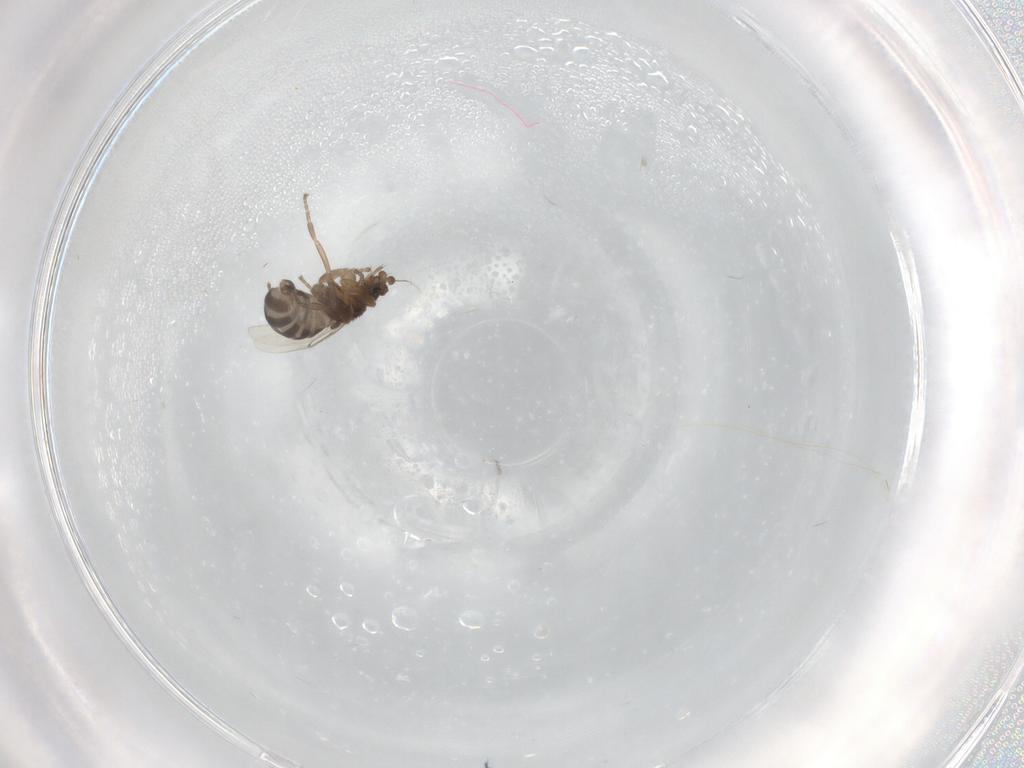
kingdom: Animalia
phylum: Arthropoda
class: Insecta
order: Diptera
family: Phoridae
